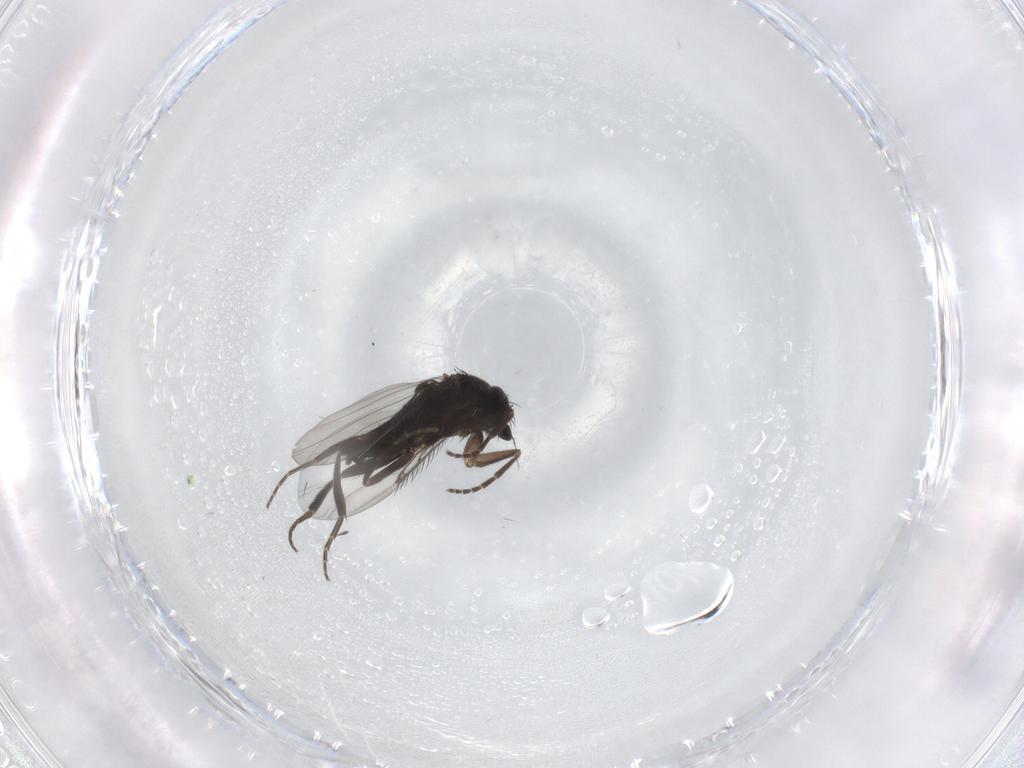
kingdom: Animalia
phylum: Arthropoda
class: Insecta
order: Diptera
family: Phoridae
